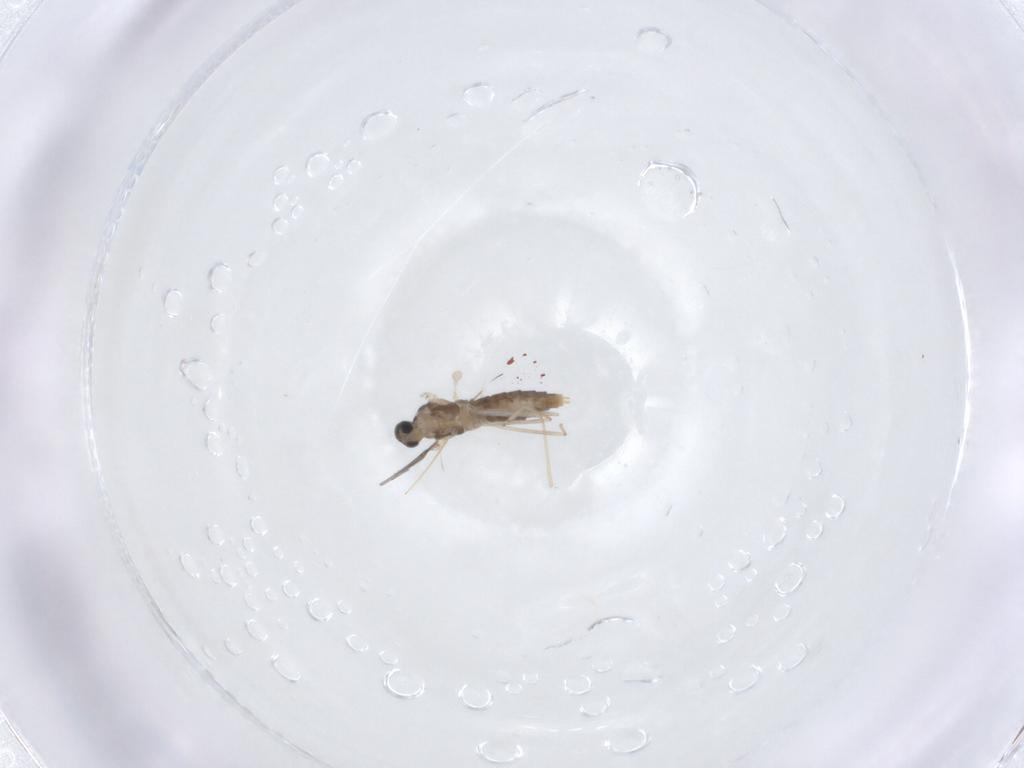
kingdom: Animalia
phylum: Arthropoda
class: Insecta
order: Diptera
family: Cecidomyiidae
